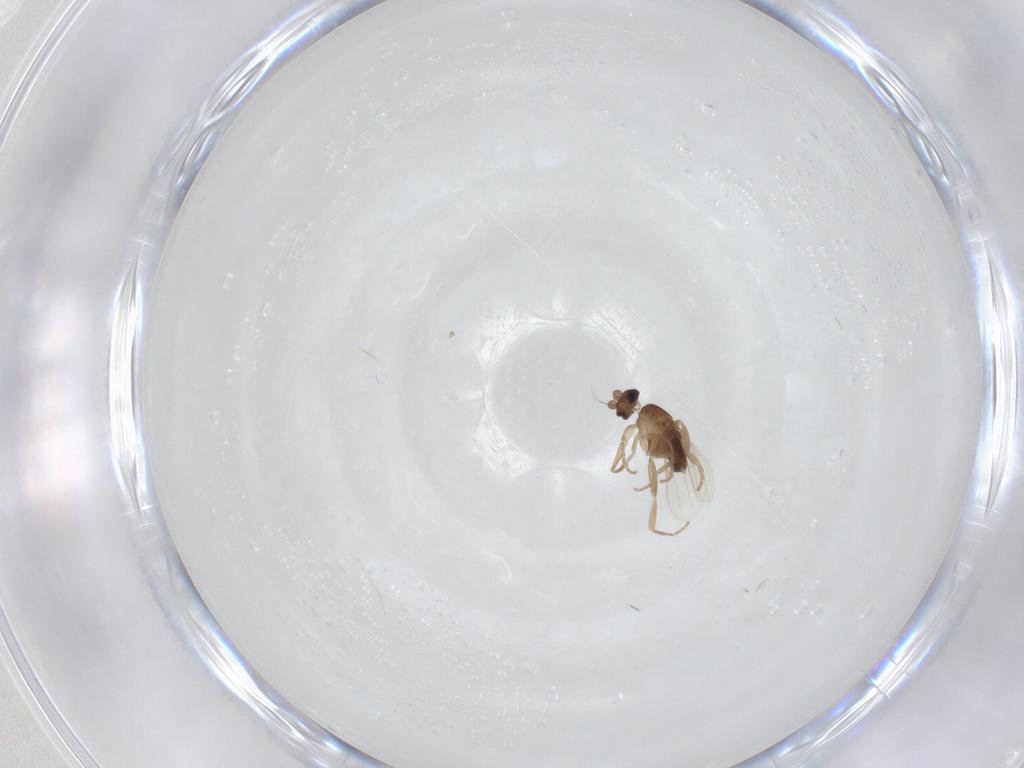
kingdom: Animalia
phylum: Arthropoda
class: Insecta
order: Diptera
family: Phoridae
